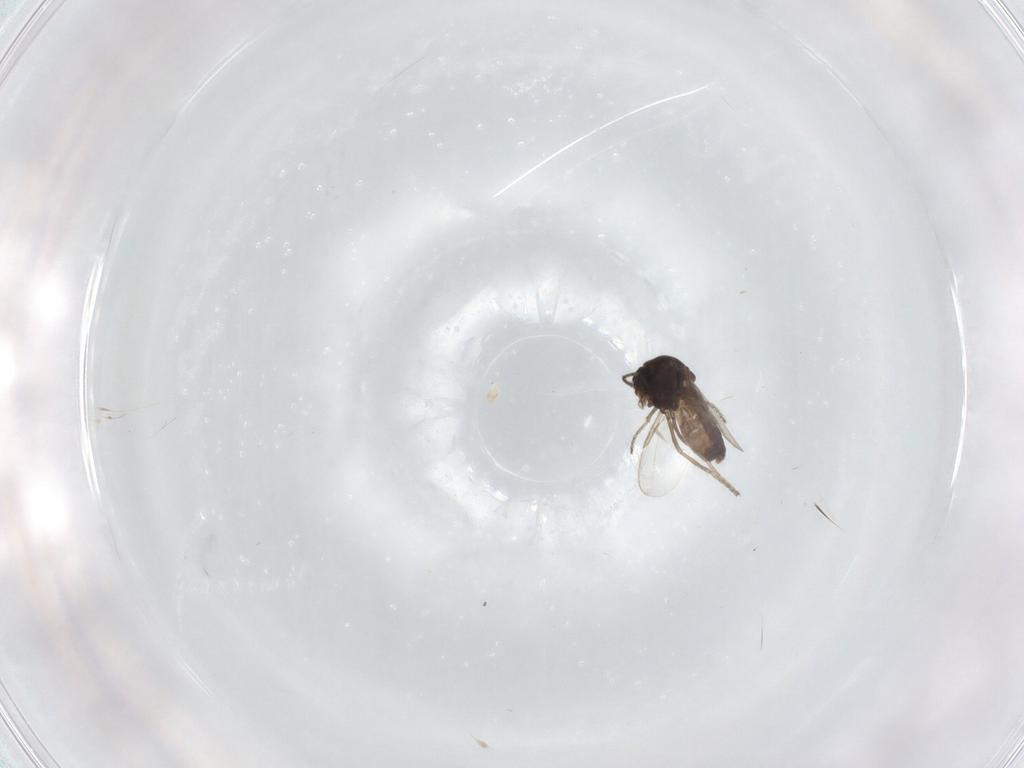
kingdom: Animalia
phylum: Arthropoda
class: Insecta
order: Diptera
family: Ceratopogonidae
